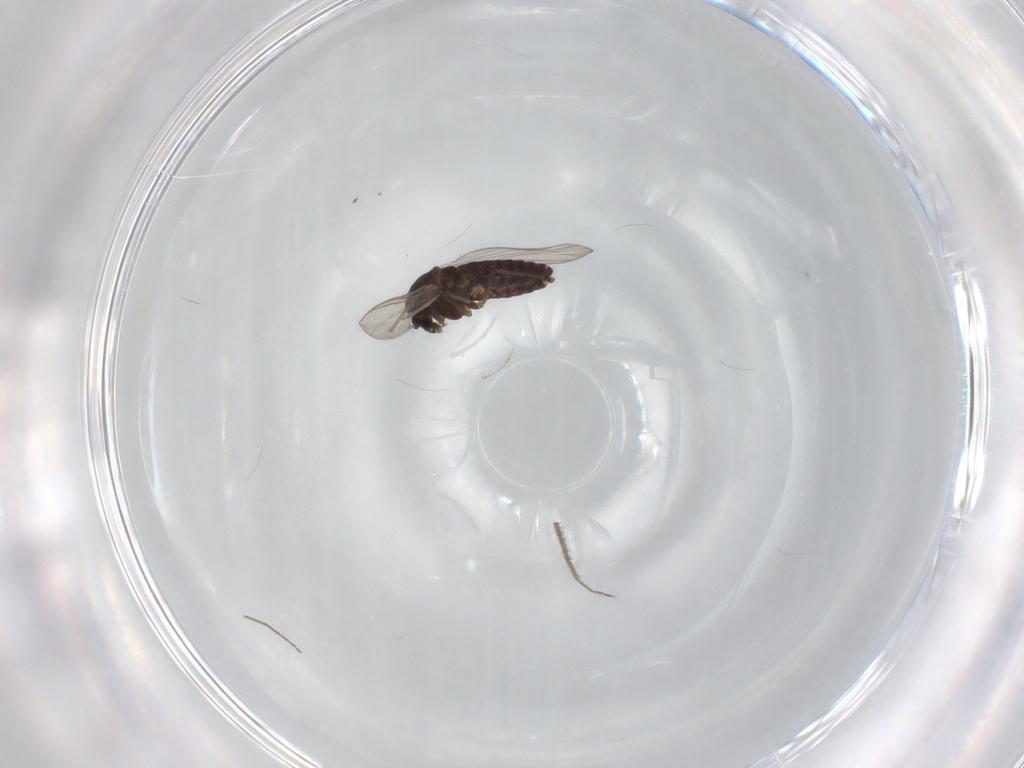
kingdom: Animalia
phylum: Arthropoda
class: Insecta
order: Diptera
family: Chironomidae
